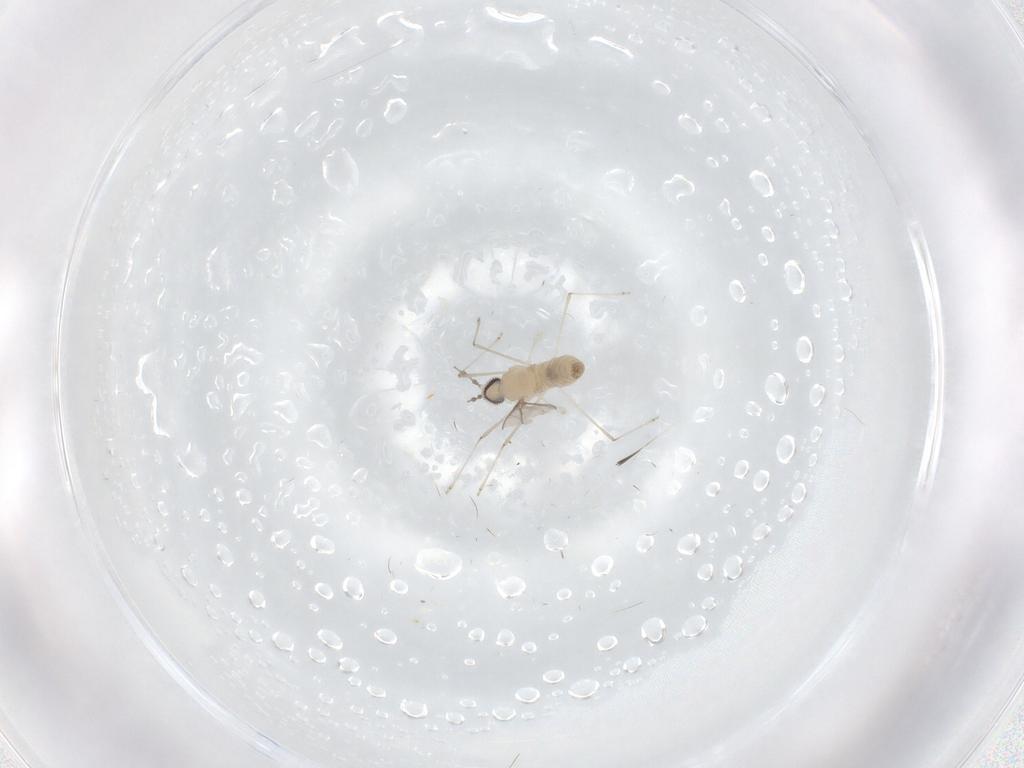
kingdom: Animalia
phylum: Arthropoda
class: Insecta
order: Diptera
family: Cecidomyiidae
